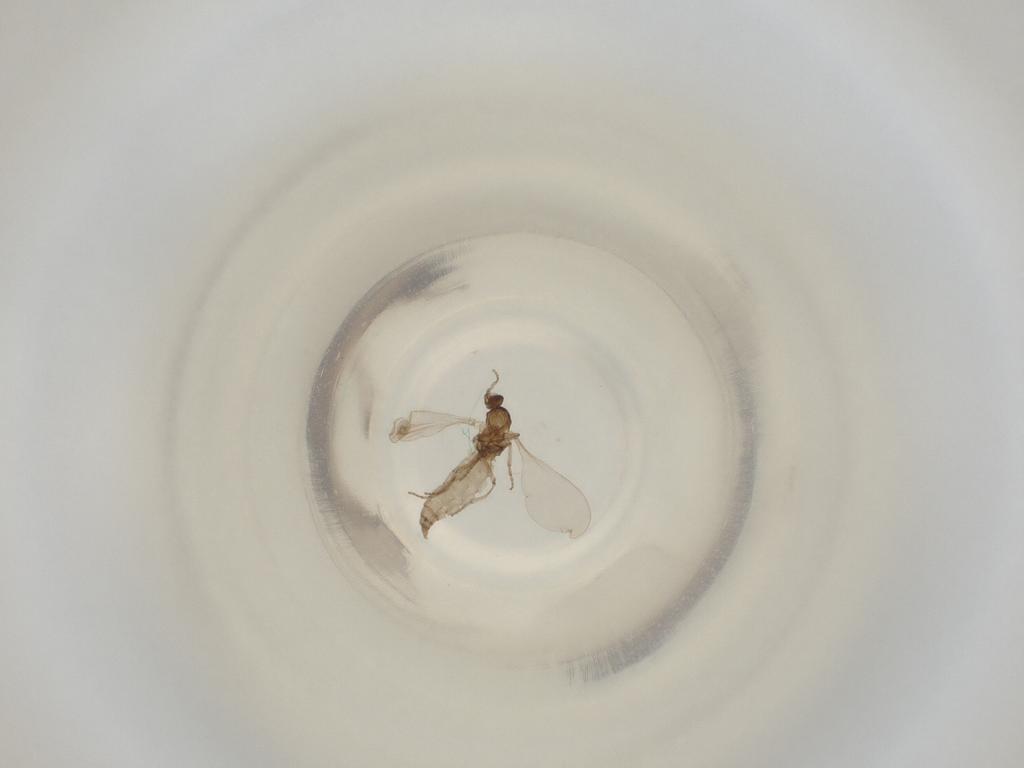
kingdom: Animalia
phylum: Arthropoda
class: Insecta
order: Diptera
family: Cecidomyiidae
